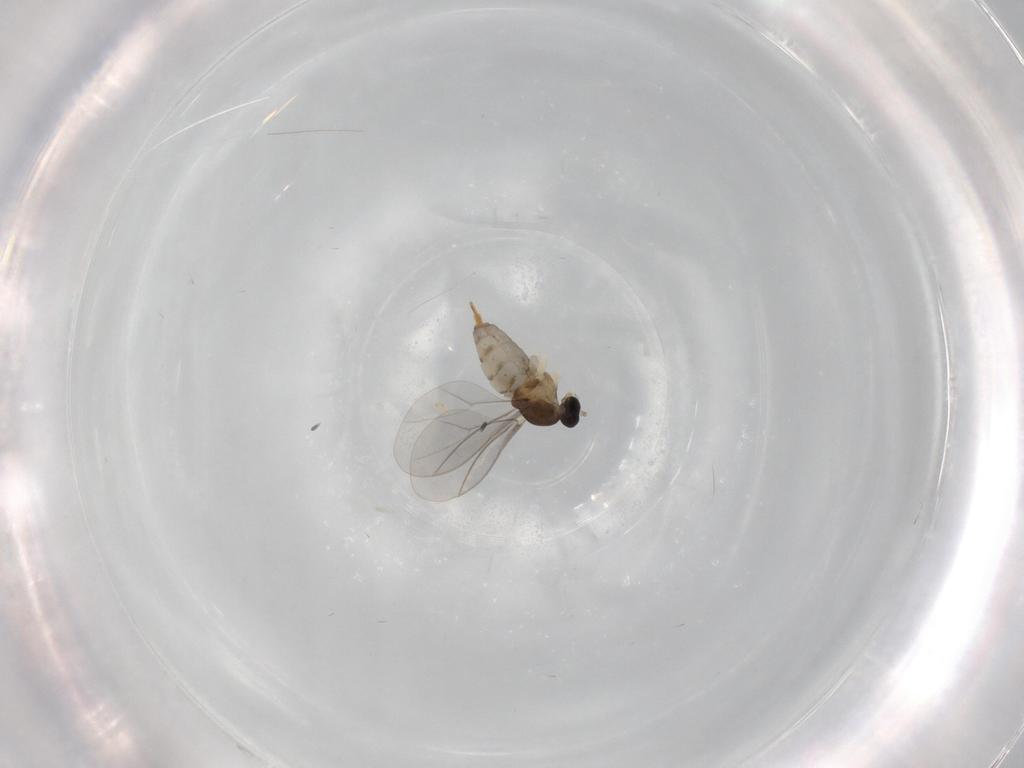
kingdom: Animalia
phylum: Arthropoda
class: Insecta
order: Diptera
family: Cecidomyiidae
